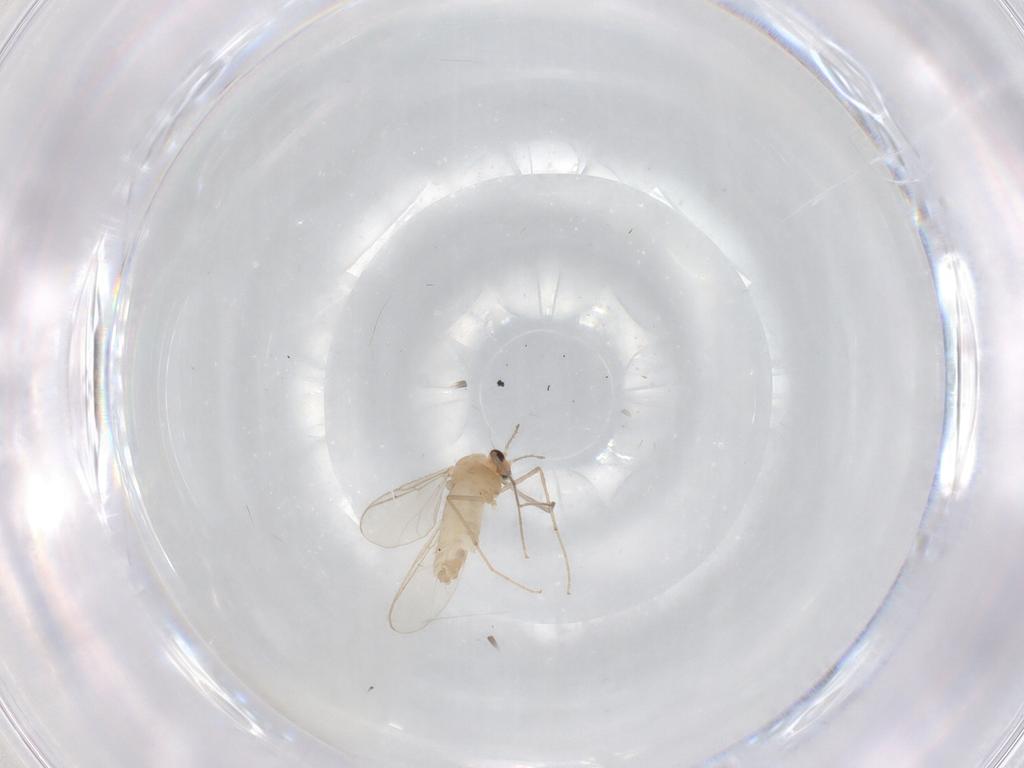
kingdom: Animalia
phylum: Arthropoda
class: Insecta
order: Diptera
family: Chironomidae
